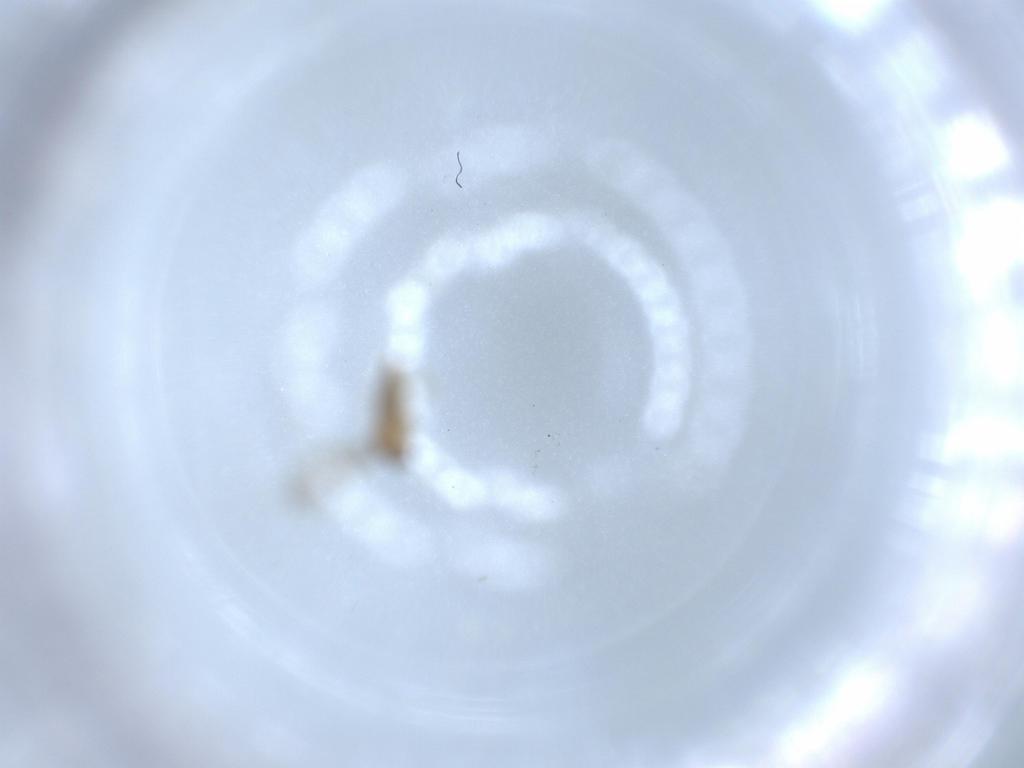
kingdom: Animalia
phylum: Arthropoda
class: Insecta
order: Diptera
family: Cecidomyiidae
